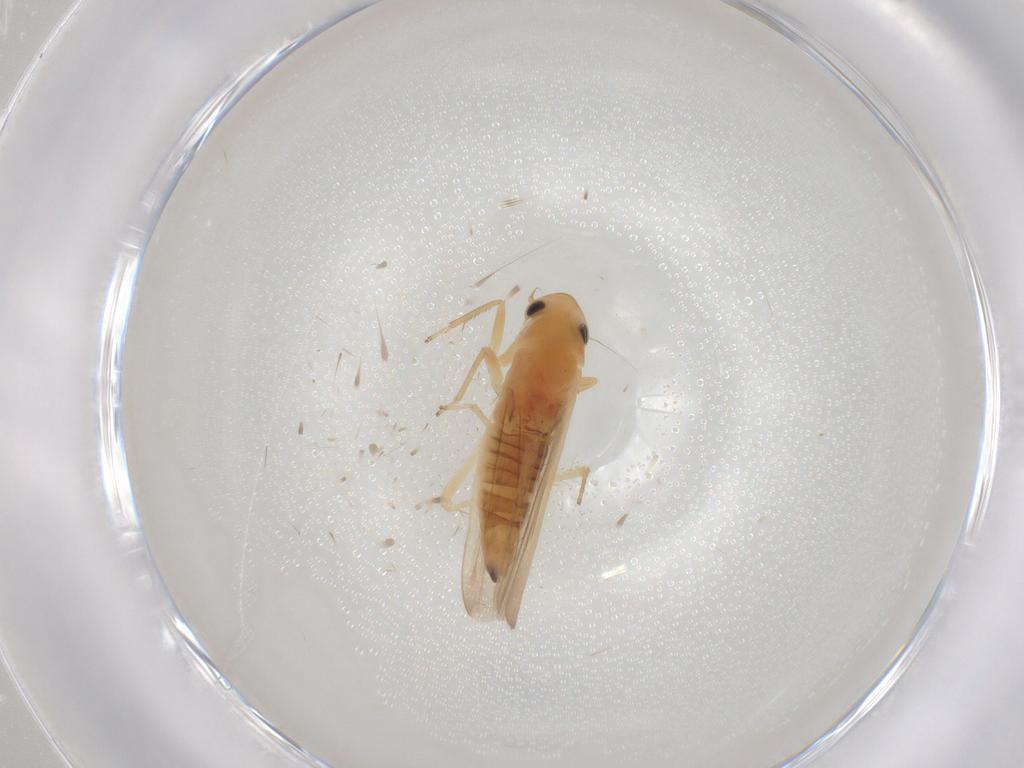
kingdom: Animalia
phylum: Arthropoda
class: Insecta
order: Hemiptera
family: Cicadellidae
